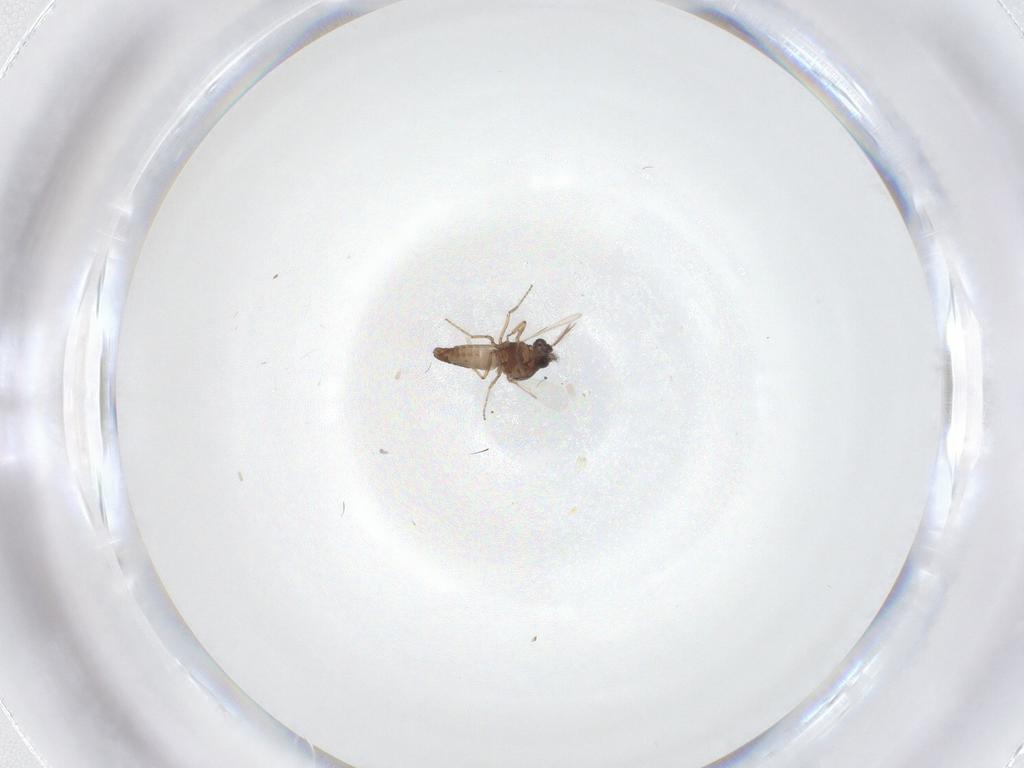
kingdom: Animalia
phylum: Arthropoda
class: Insecta
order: Diptera
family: Ceratopogonidae
